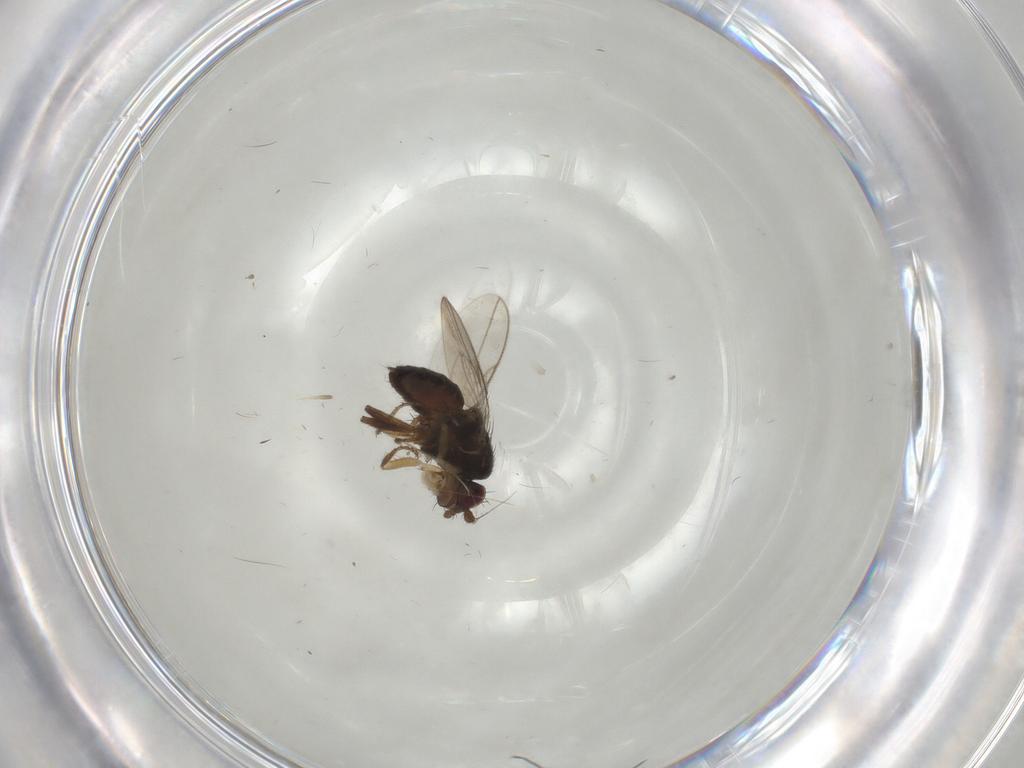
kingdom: Animalia
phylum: Arthropoda
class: Insecta
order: Diptera
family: Sphaeroceridae
